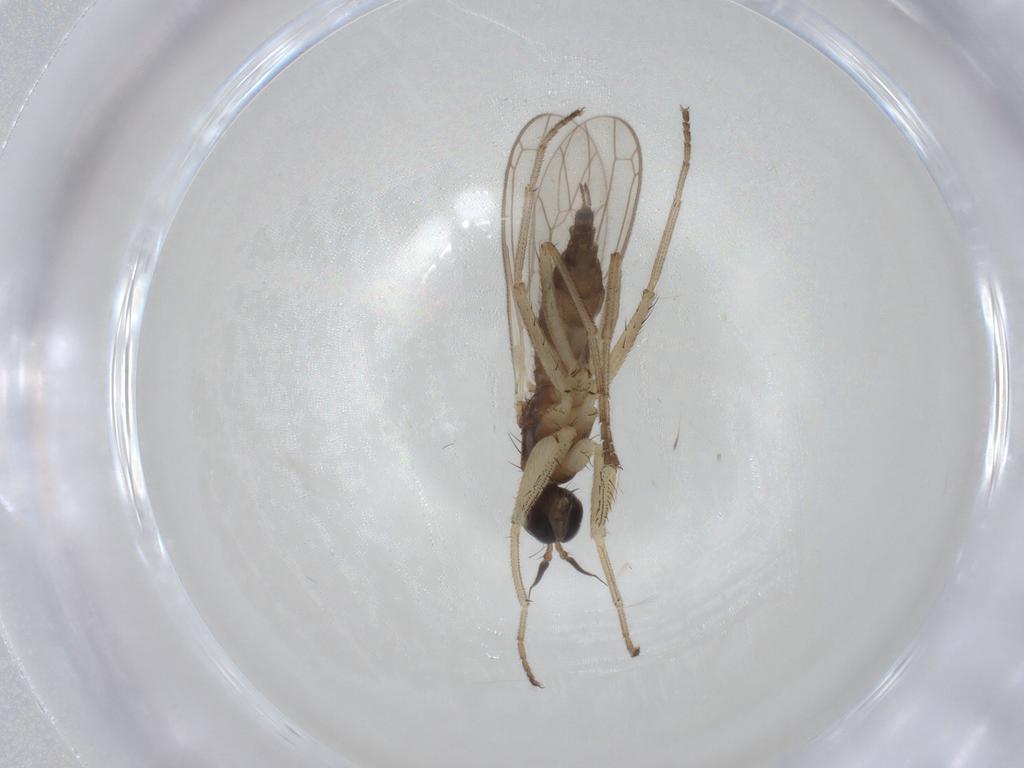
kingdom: Animalia
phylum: Arthropoda
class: Insecta
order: Diptera
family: Empididae
